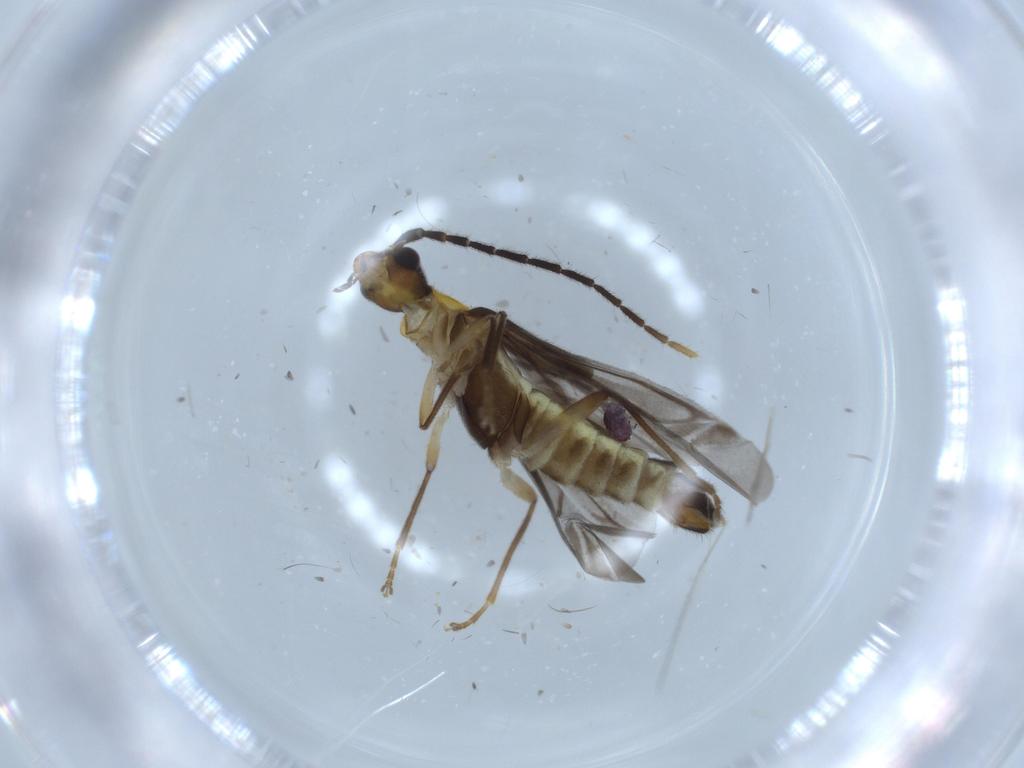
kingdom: Animalia
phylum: Arthropoda
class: Insecta
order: Coleoptera
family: Cantharidae
